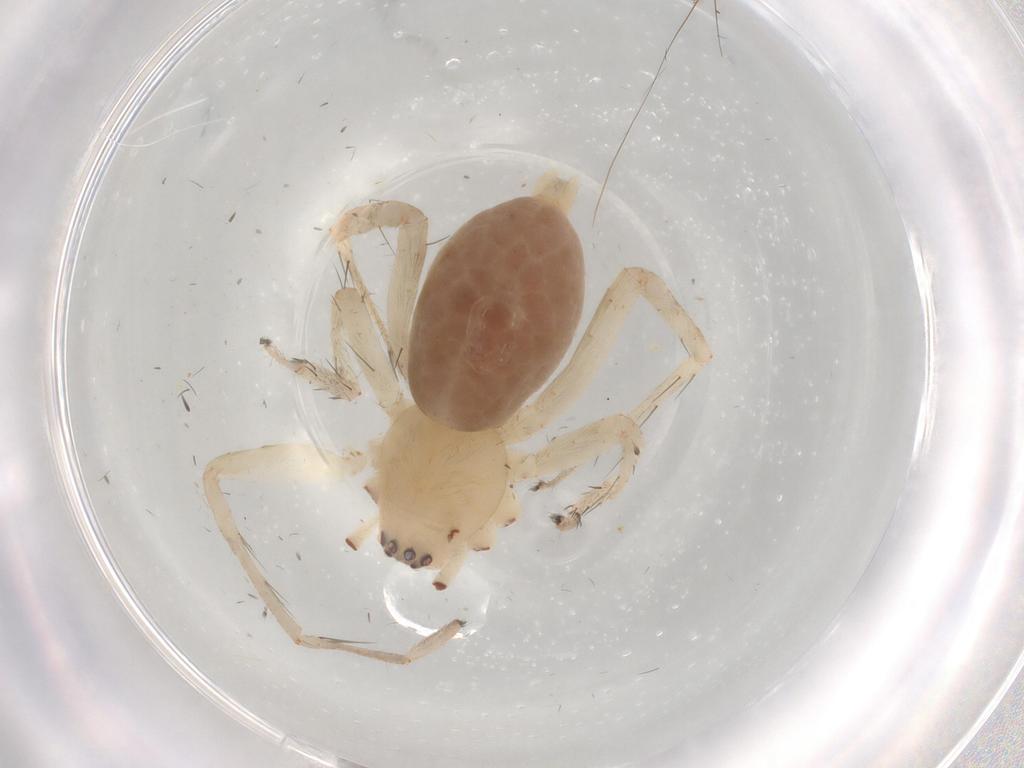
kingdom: Animalia
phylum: Arthropoda
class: Arachnida
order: Araneae
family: Anyphaenidae
